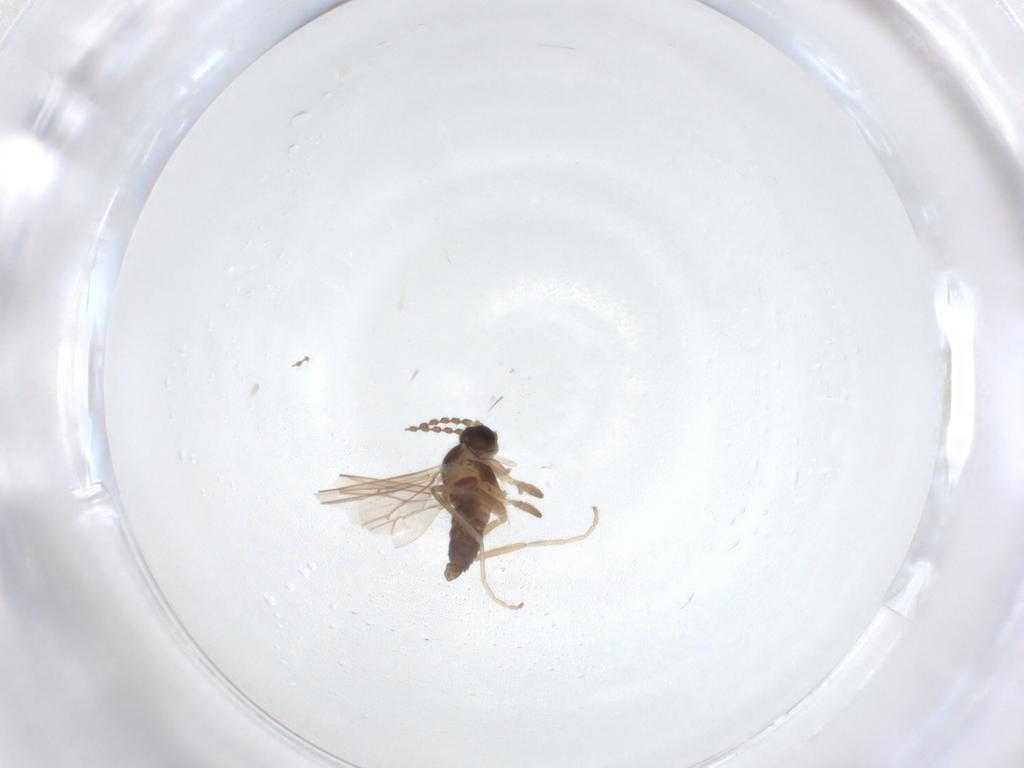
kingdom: Animalia
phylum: Arthropoda
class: Insecta
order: Diptera
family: Cecidomyiidae
